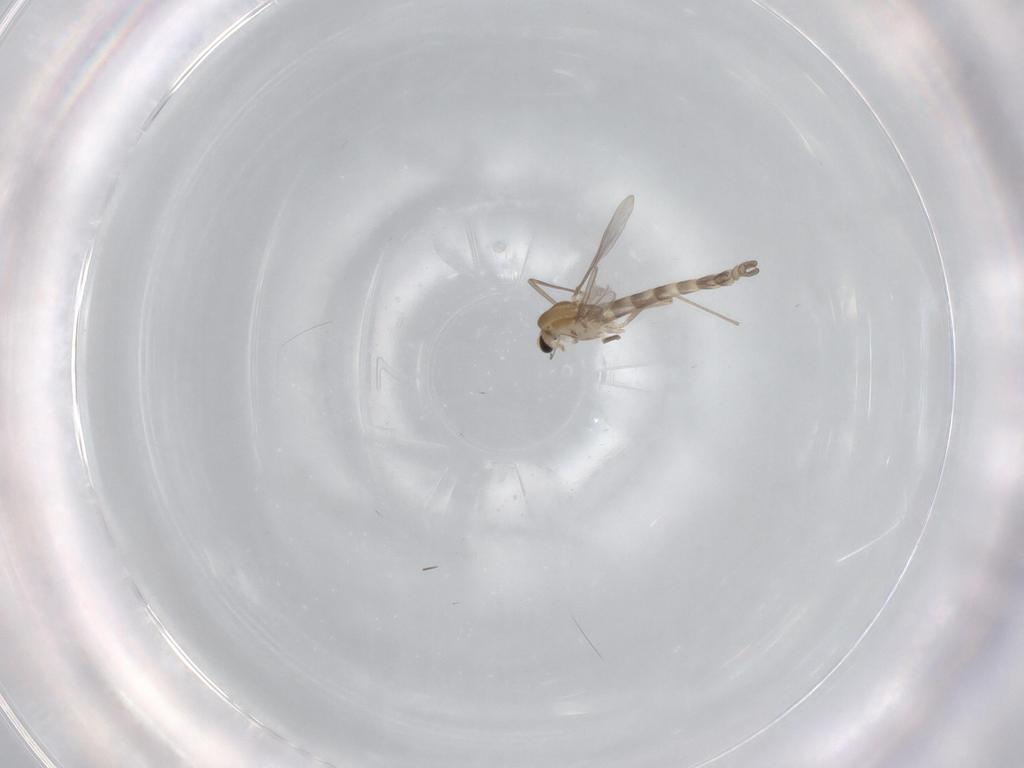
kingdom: Animalia
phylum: Arthropoda
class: Insecta
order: Diptera
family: Chironomidae
